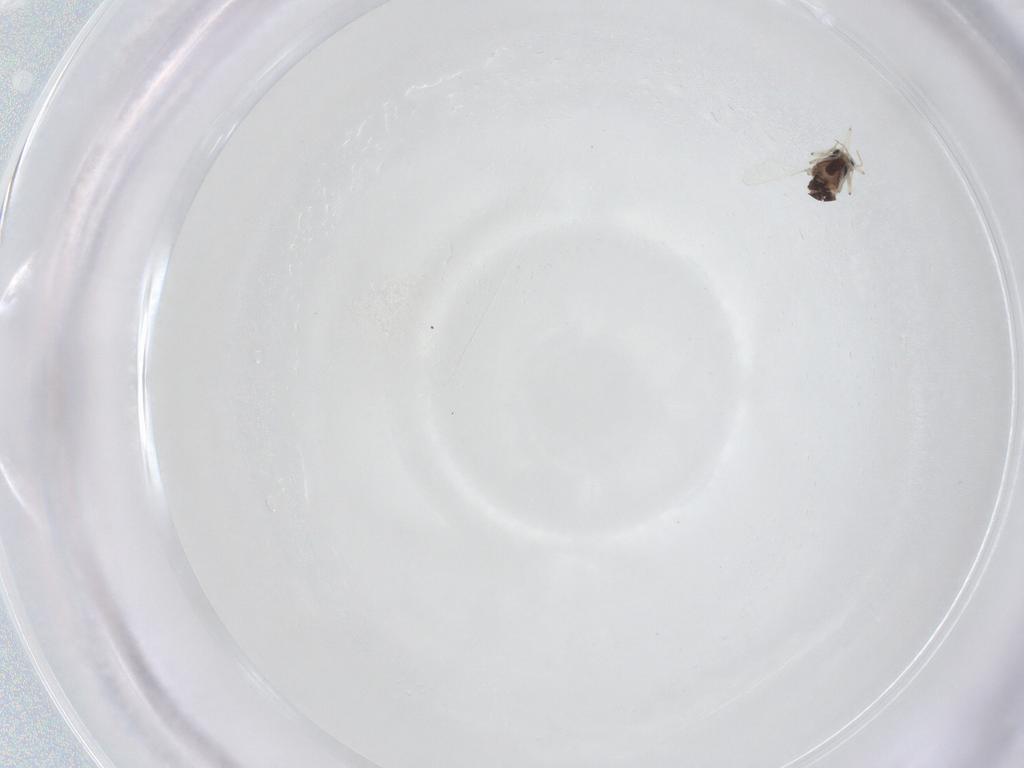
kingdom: Animalia
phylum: Arthropoda
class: Insecta
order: Diptera
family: Chironomidae
